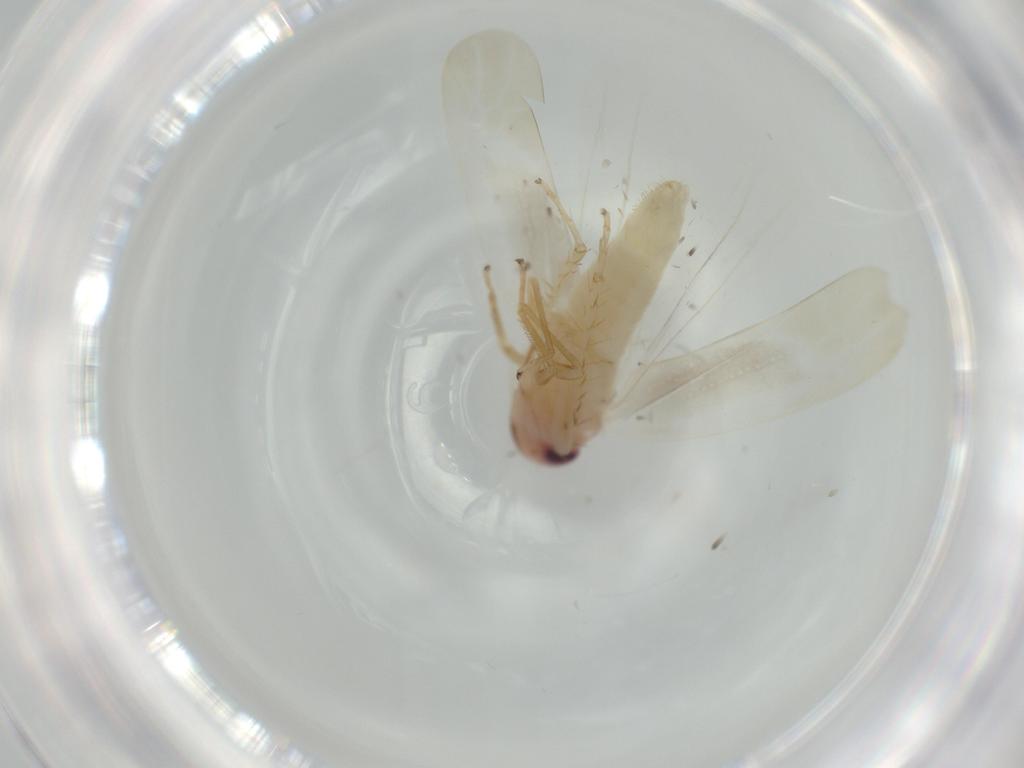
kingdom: Animalia
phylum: Arthropoda
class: Insecta
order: Hemiptera
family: Cicadellidae
